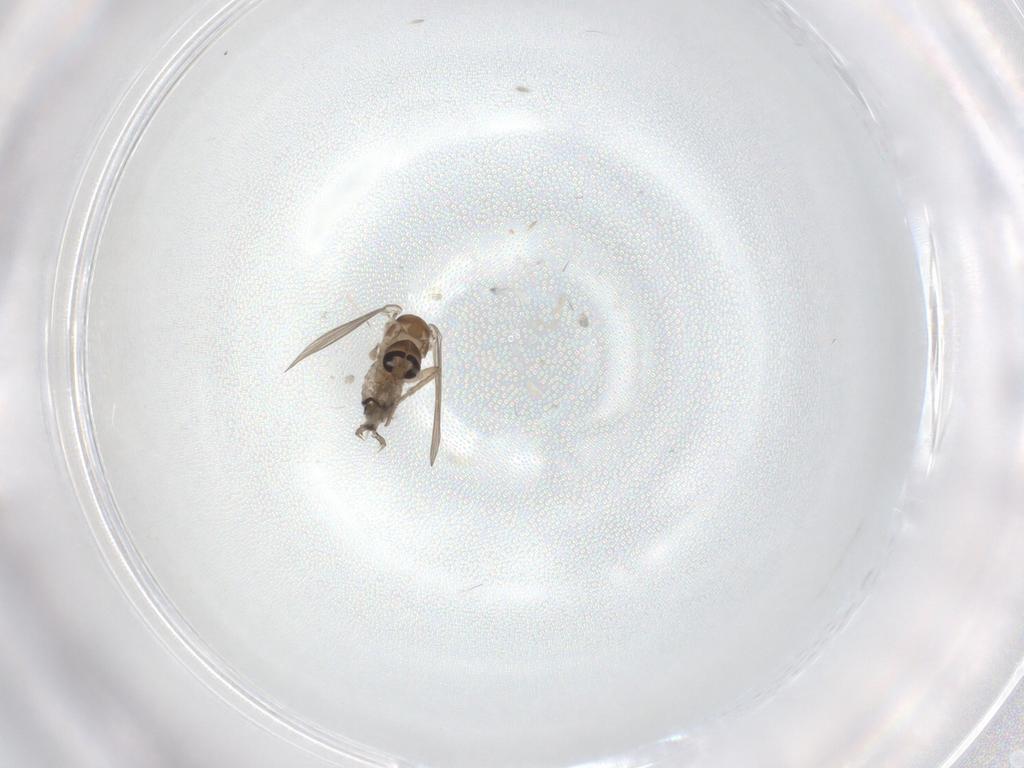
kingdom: Animalia
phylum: Arthropoda
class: Insecta
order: Diptera
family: Psychodidae
